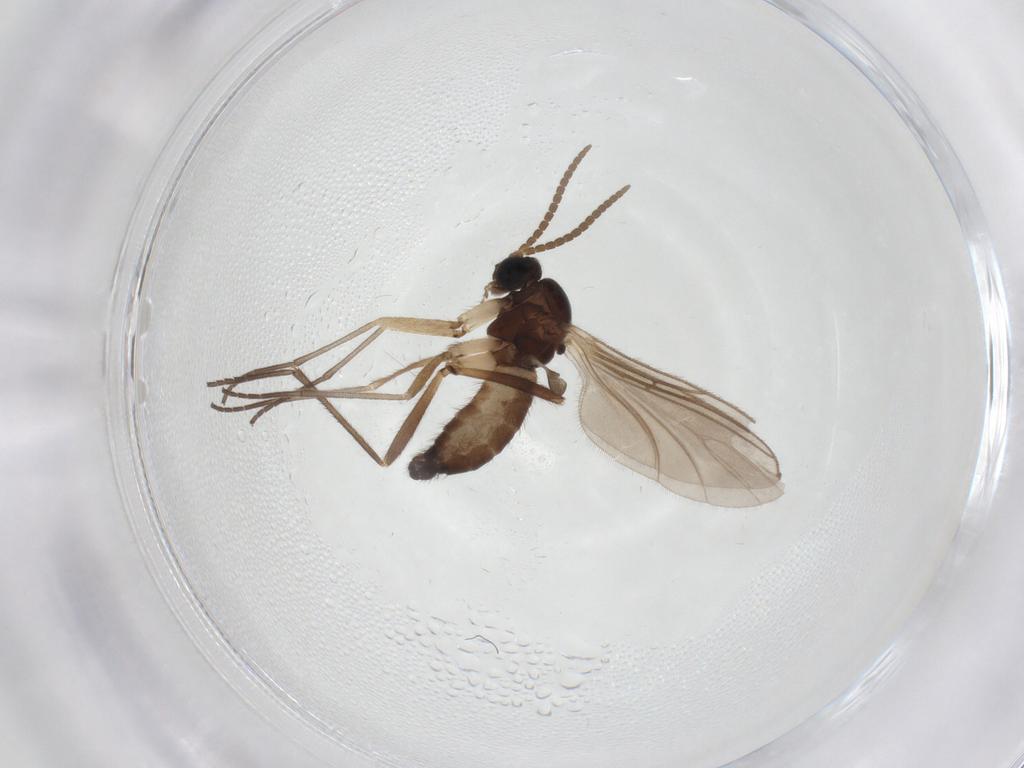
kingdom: Animalia
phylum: Arthropoda
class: Insecta
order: Diptera
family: Sciaridae
